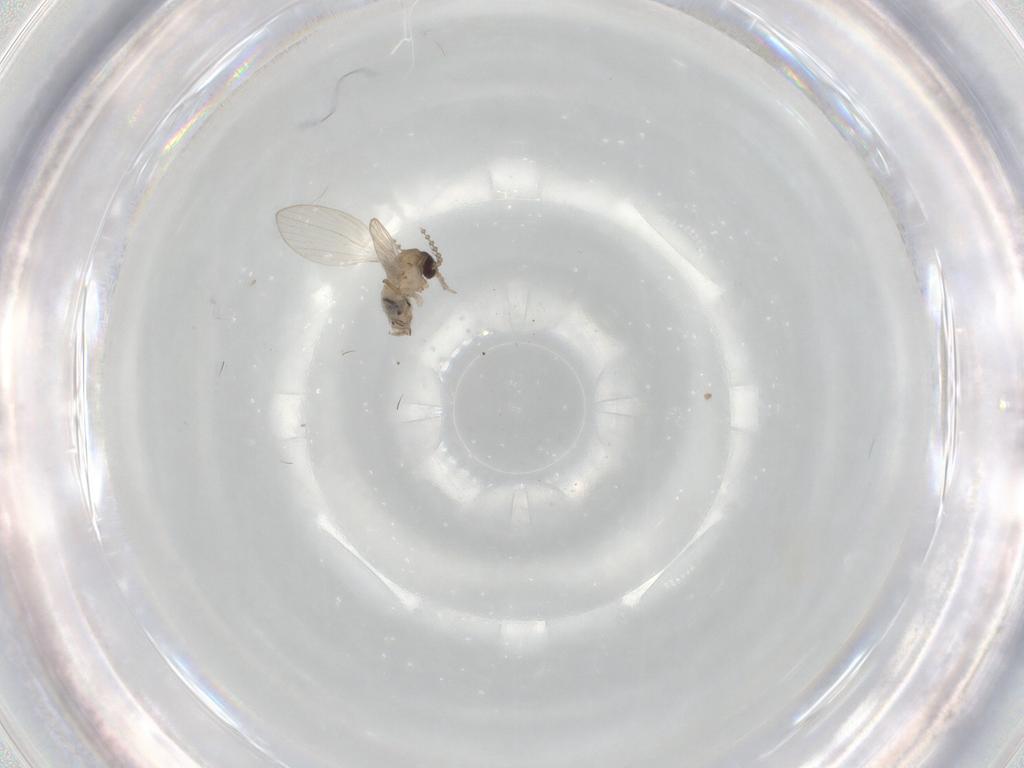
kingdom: Animalia
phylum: Arthropoda
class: Insecta
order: Diptera
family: Psychodidae
